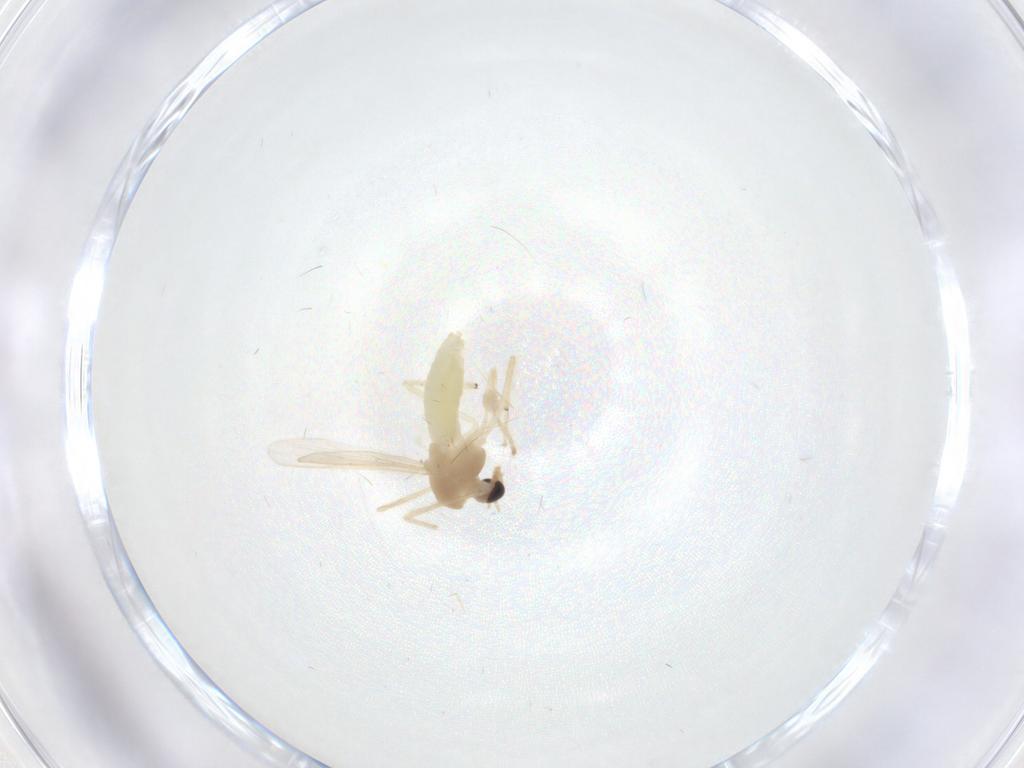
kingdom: Animalia
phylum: Arthropoda
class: Insecta
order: Diptera
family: Chironomidae
